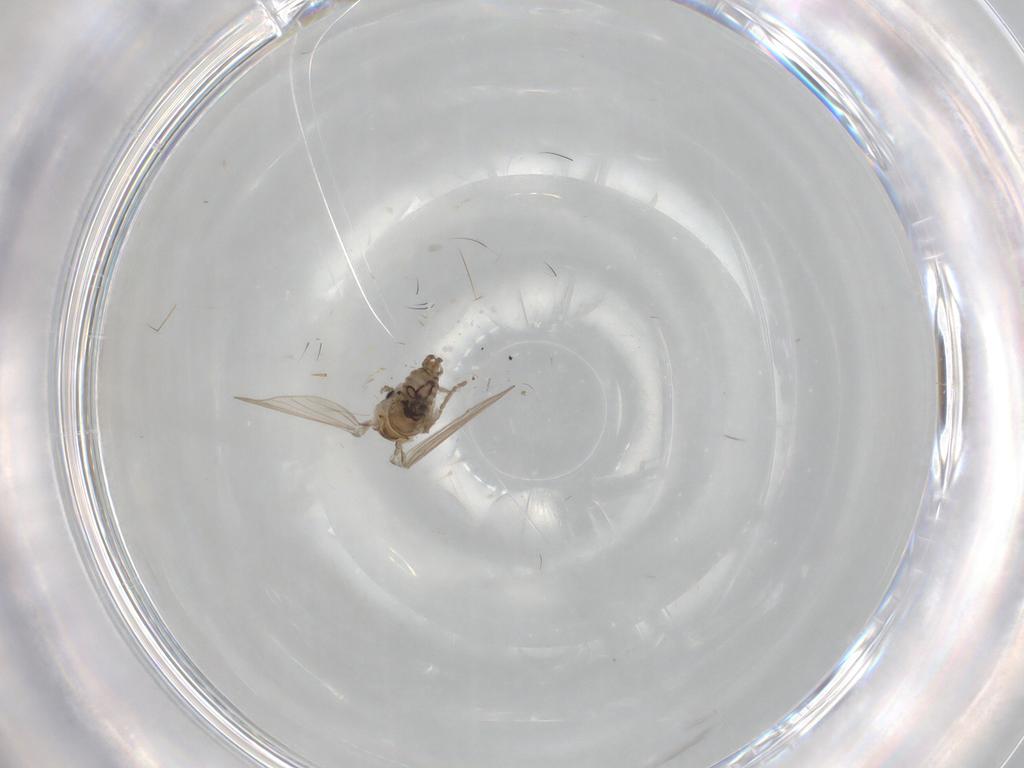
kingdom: Animalia
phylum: Arthropoda
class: Insecta
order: Diptera
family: Psychodidae
